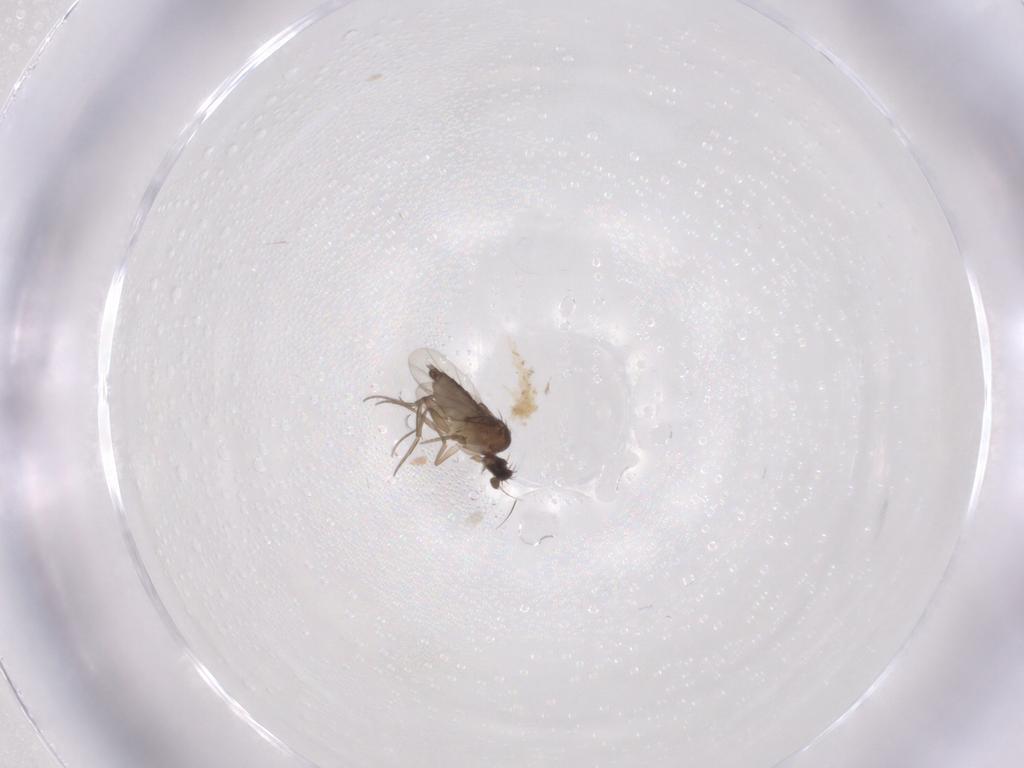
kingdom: Animalia
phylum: Arthropoda
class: Insecta
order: Diptera
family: Phoridae
